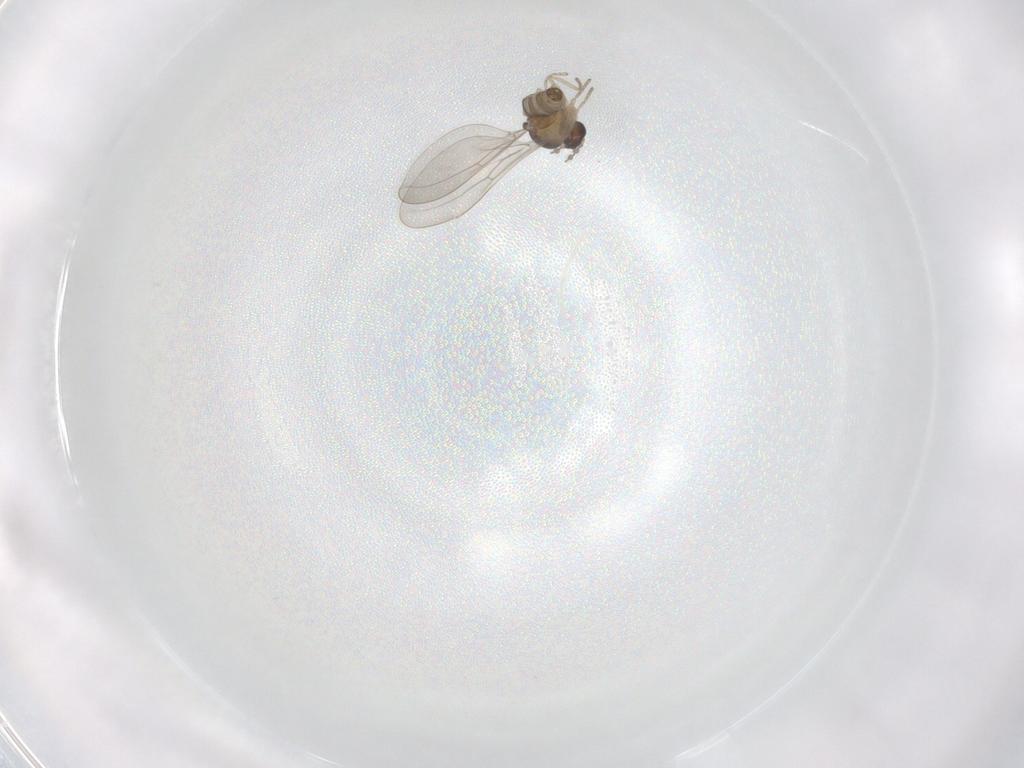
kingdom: Animalia
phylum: Arthropoda
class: Insecta
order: Diptera
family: Cecidomyiidae
